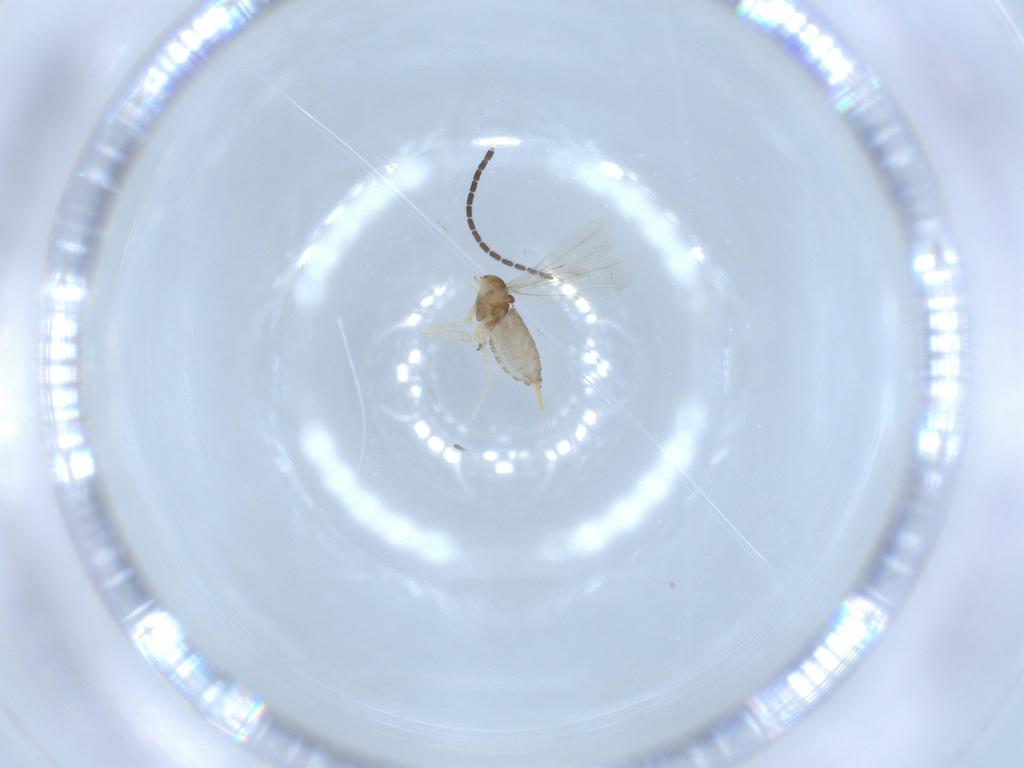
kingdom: Animalia
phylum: Arthropoda
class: Insecta
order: Diptera
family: Sciaridae
